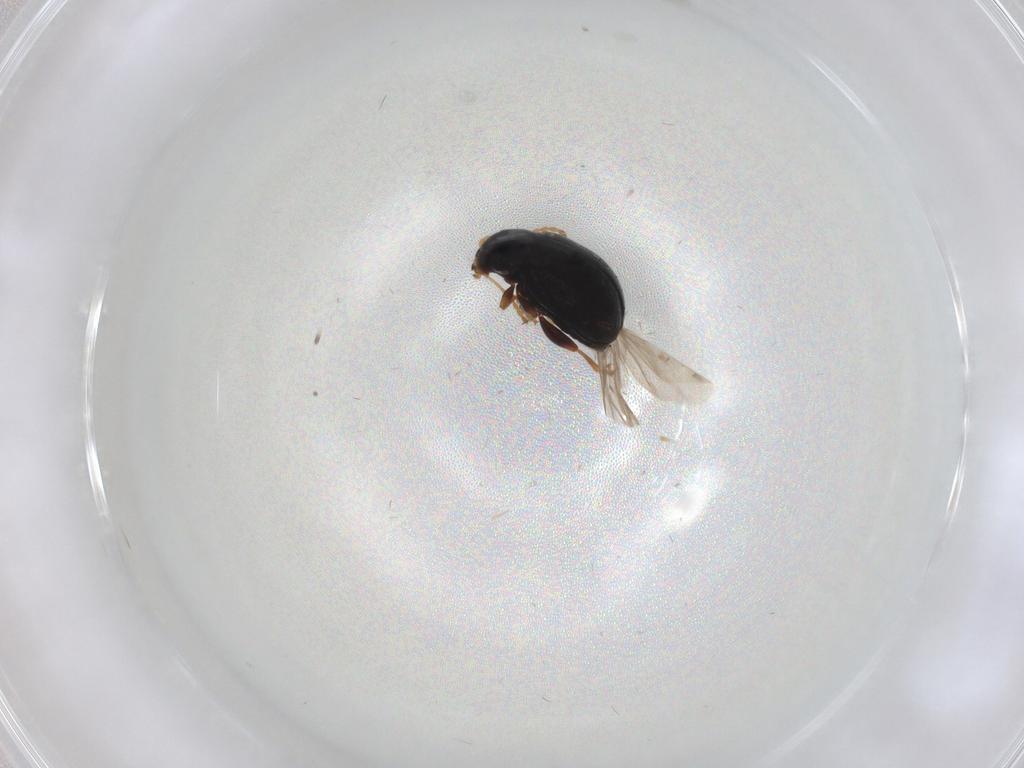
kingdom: Animalia
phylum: Arthropoda
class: Insecta
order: Coleoptera
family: Chrysomelidae
